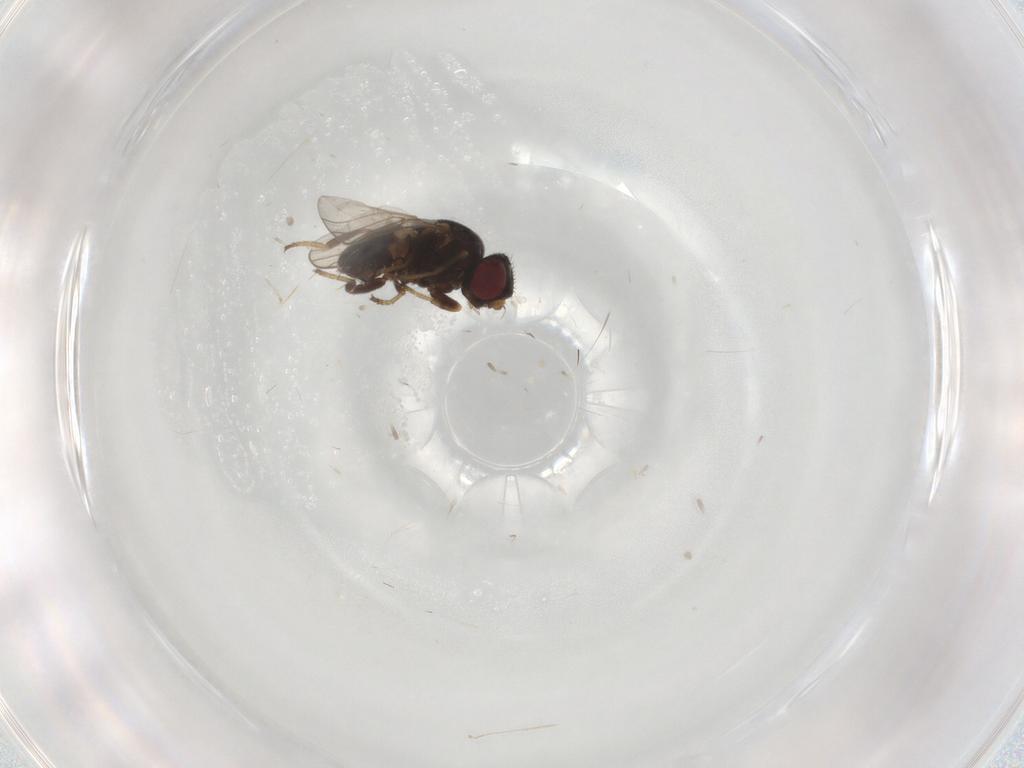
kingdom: Animalia
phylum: Arthropoda
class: Insecta
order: Diptera
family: Chloropidae
